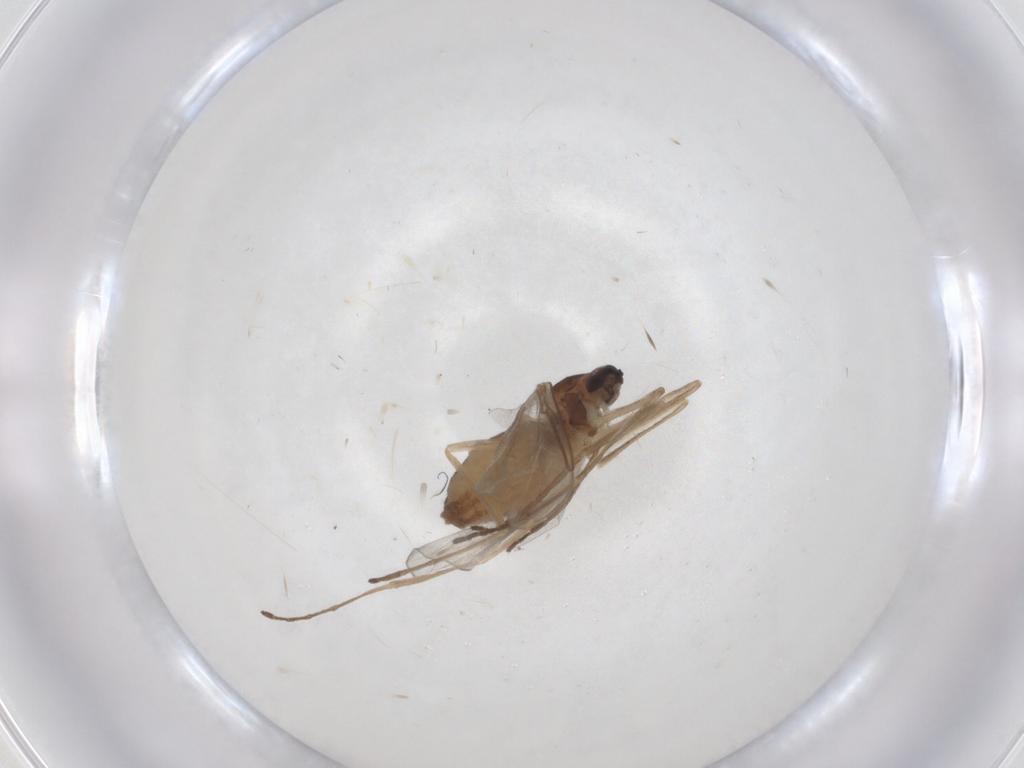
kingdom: Animalia
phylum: Arthropoda
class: Insecta
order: Diptera
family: Cecidomyiidae
